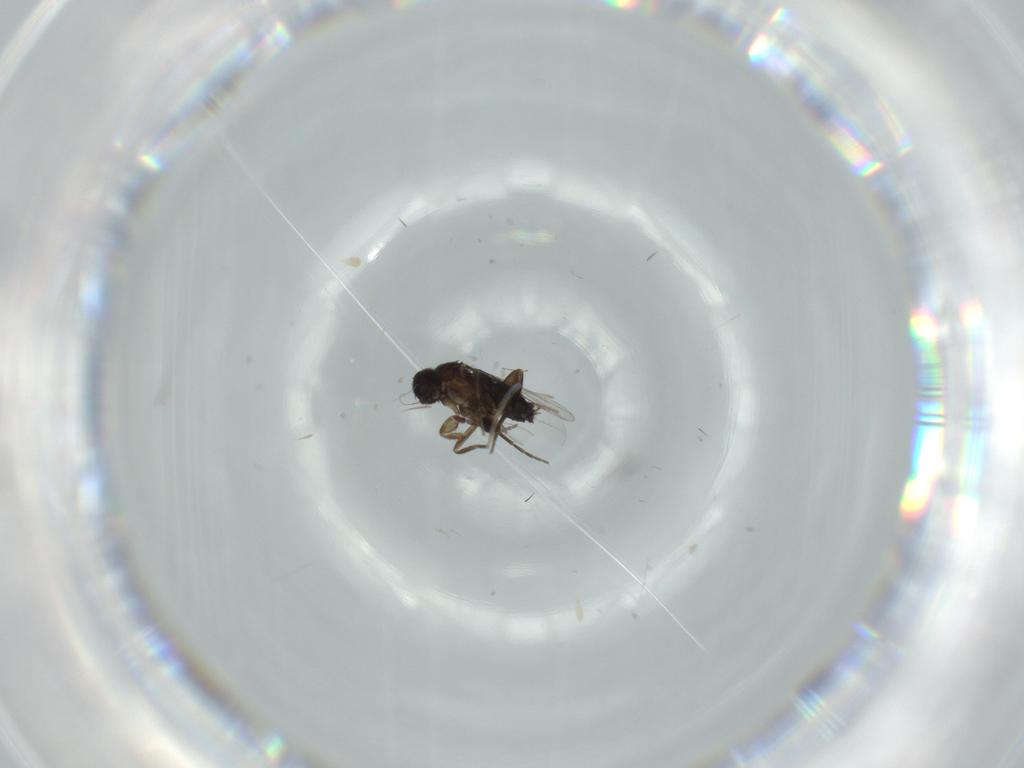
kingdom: Animalia
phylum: Arthropoda
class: Insecta
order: Diptera
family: Phoridae
